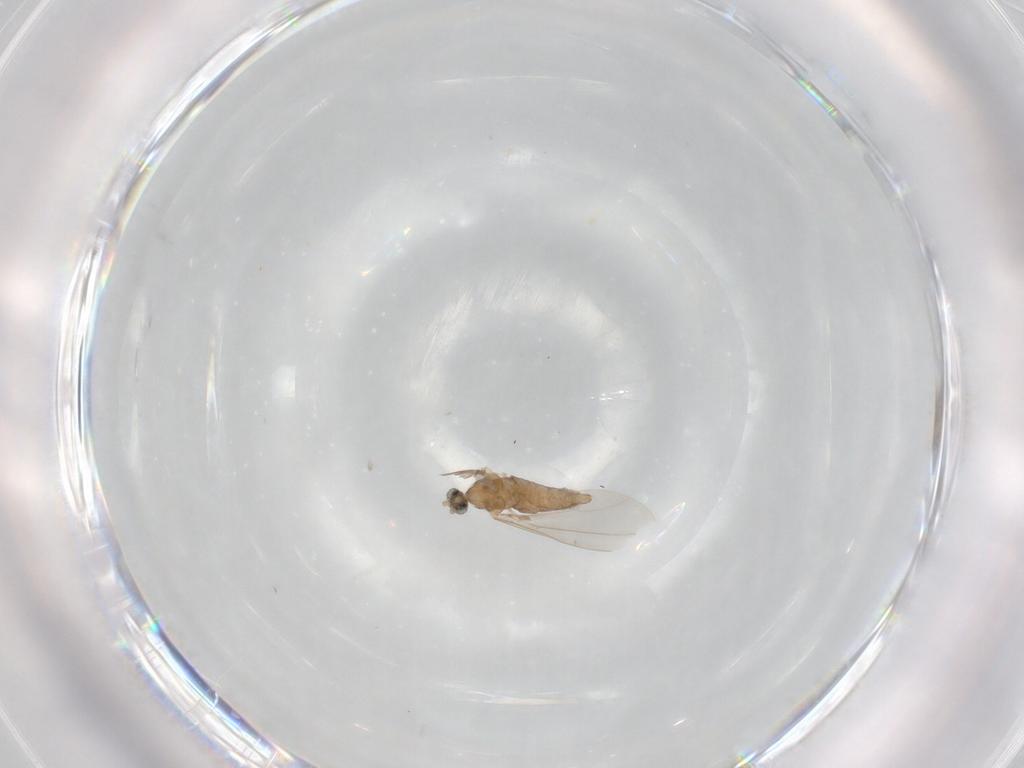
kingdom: Animalia
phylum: Arthropoda
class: Insecta
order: Diptera
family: Cecidomyiidae
